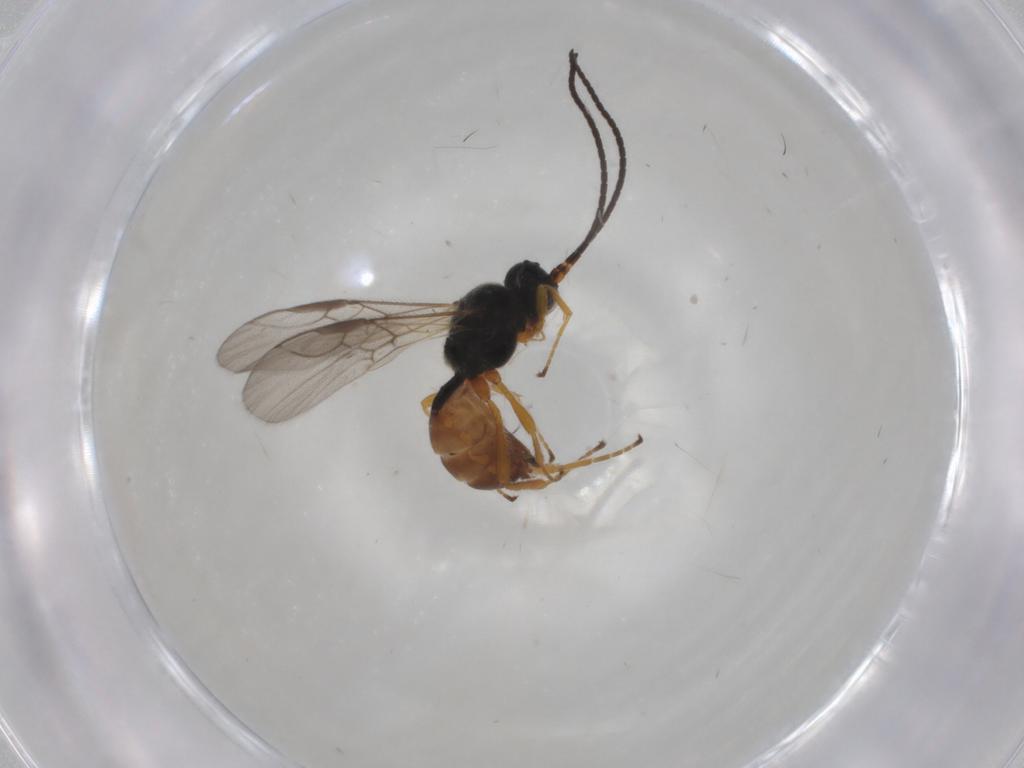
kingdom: Animalia
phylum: Arthropoda
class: Insecta
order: Hymenoptera
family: Braconidae
